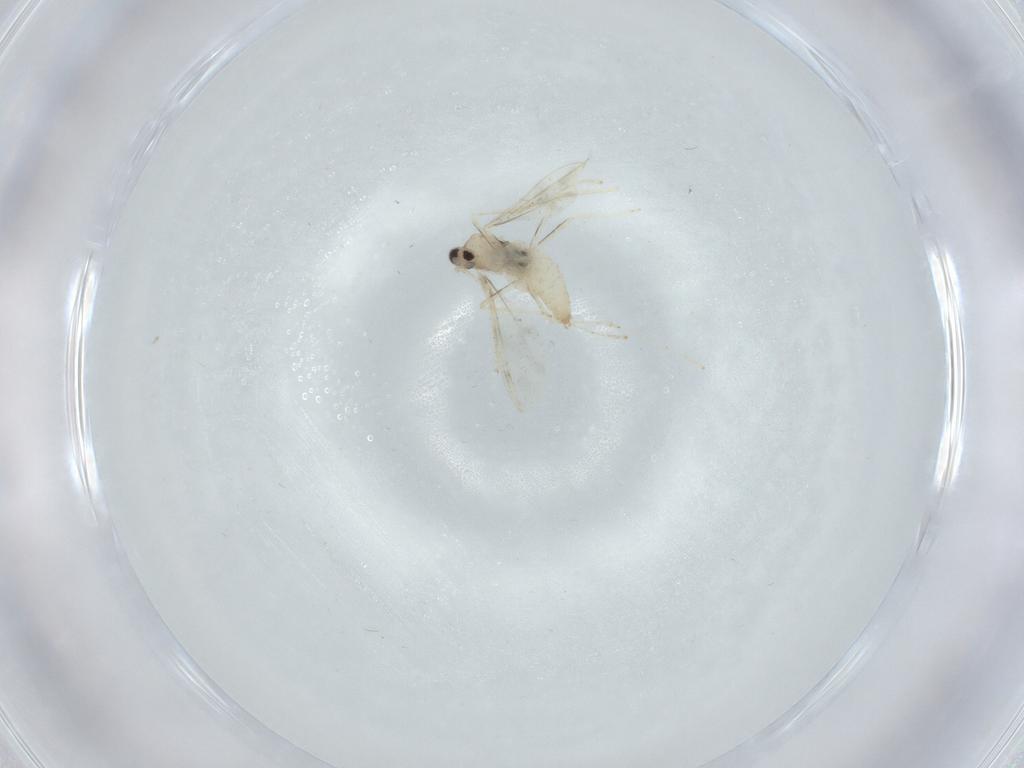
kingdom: Animalia
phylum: Arthropoda
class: Insecta
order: Diptera
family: Cecidomyiidae
